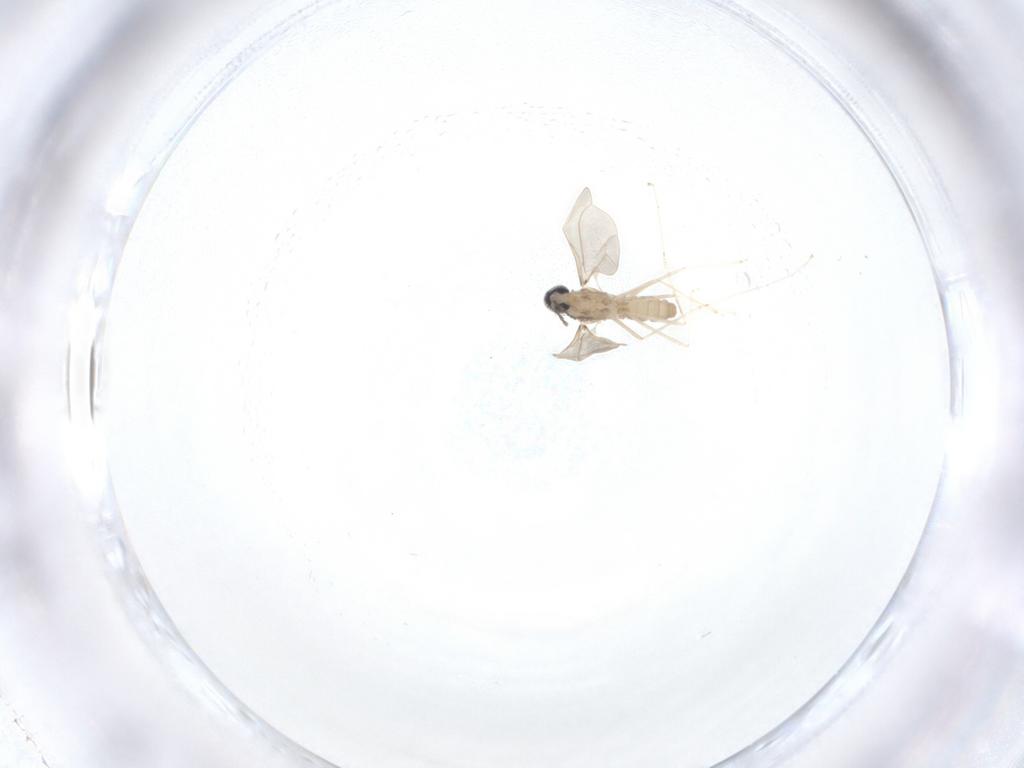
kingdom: Animalia
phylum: Arthropoda
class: Insecta
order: Diptera
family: Cecidomyiidae
